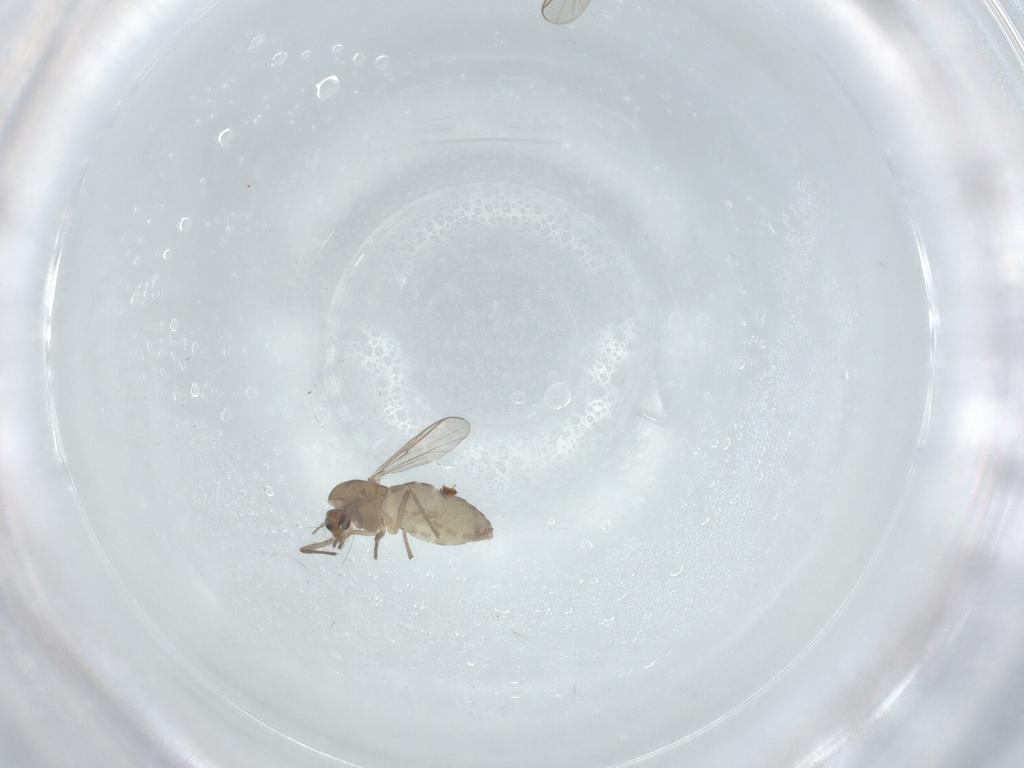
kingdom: Animalia
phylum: Arthropoda
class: Insecta
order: Diptera
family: Chironomidae
